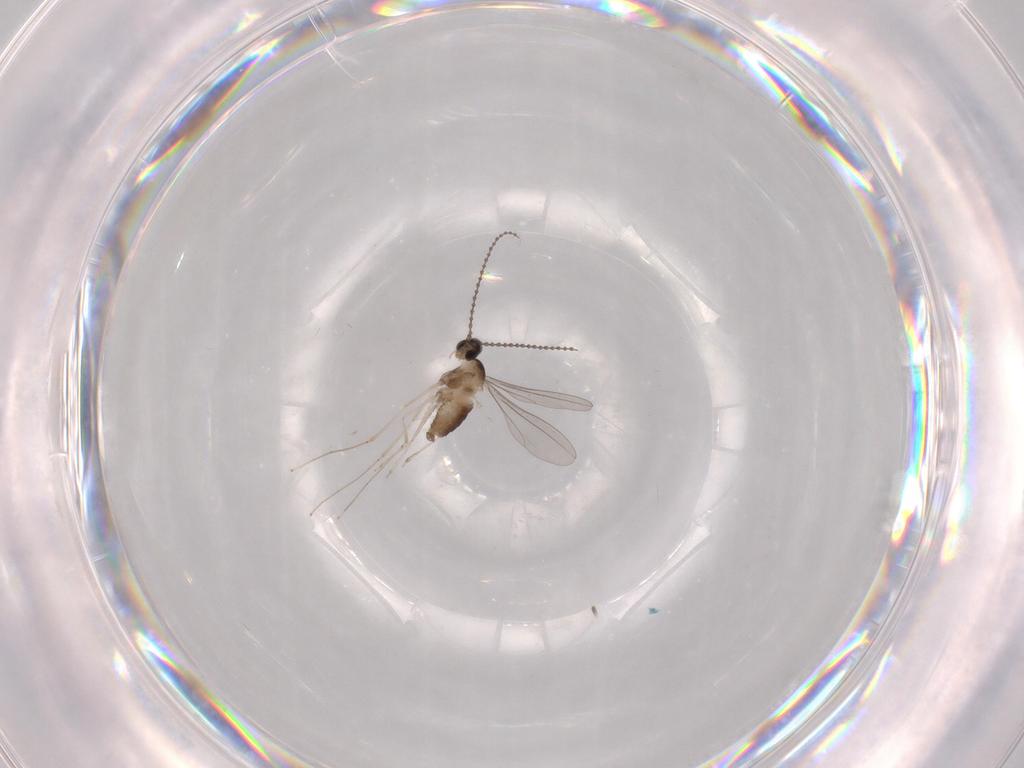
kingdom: Animalia
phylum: Arthropoda
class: Insecta
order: Diptera
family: Cecidomyiidae
